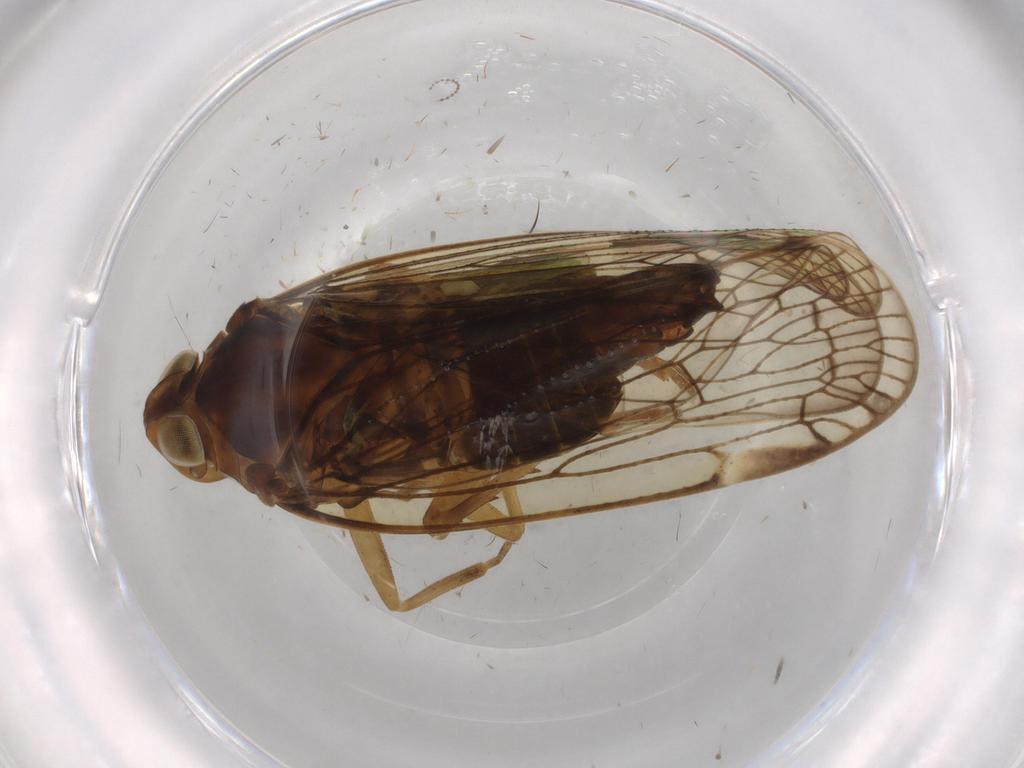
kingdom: Animalia
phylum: Arthropoda
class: Insecta
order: Hemiptera
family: Cixiidae
